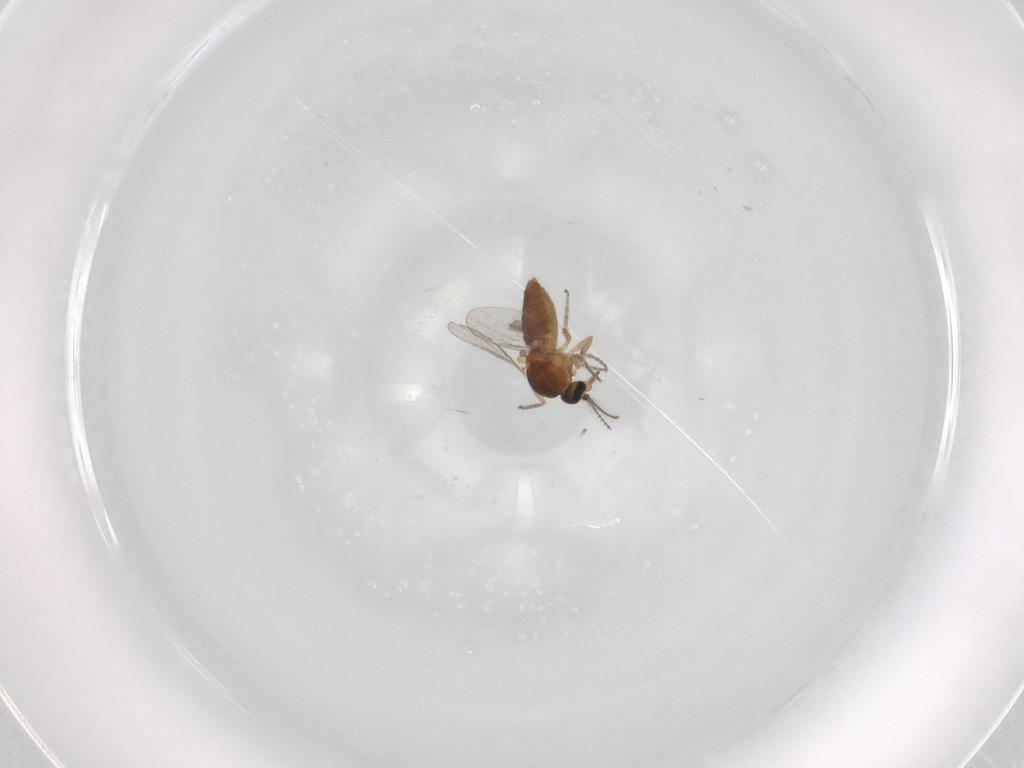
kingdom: Animalia
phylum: Arthropoda
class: Insecta
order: Diptera
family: Ceratopogonidae
